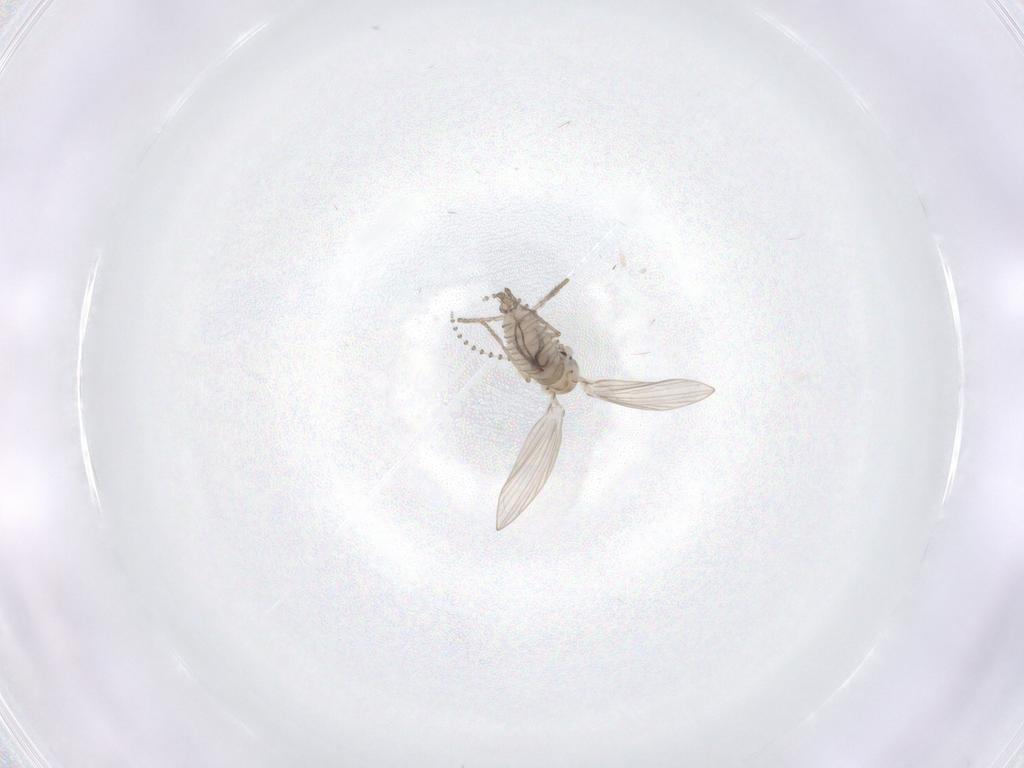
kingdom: Animalia
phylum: Arthropoda
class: Insecta
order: Diptera
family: Psychodidae
